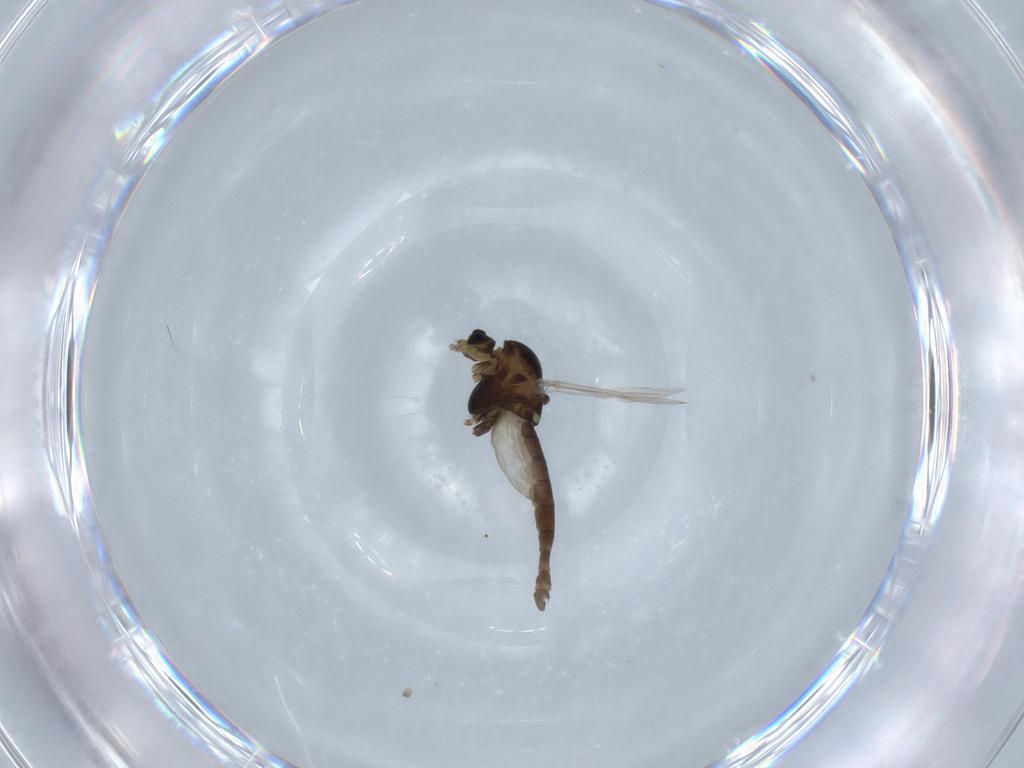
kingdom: Animalia
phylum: Arthropoda
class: Insecta
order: Diptera
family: Chironomidae
